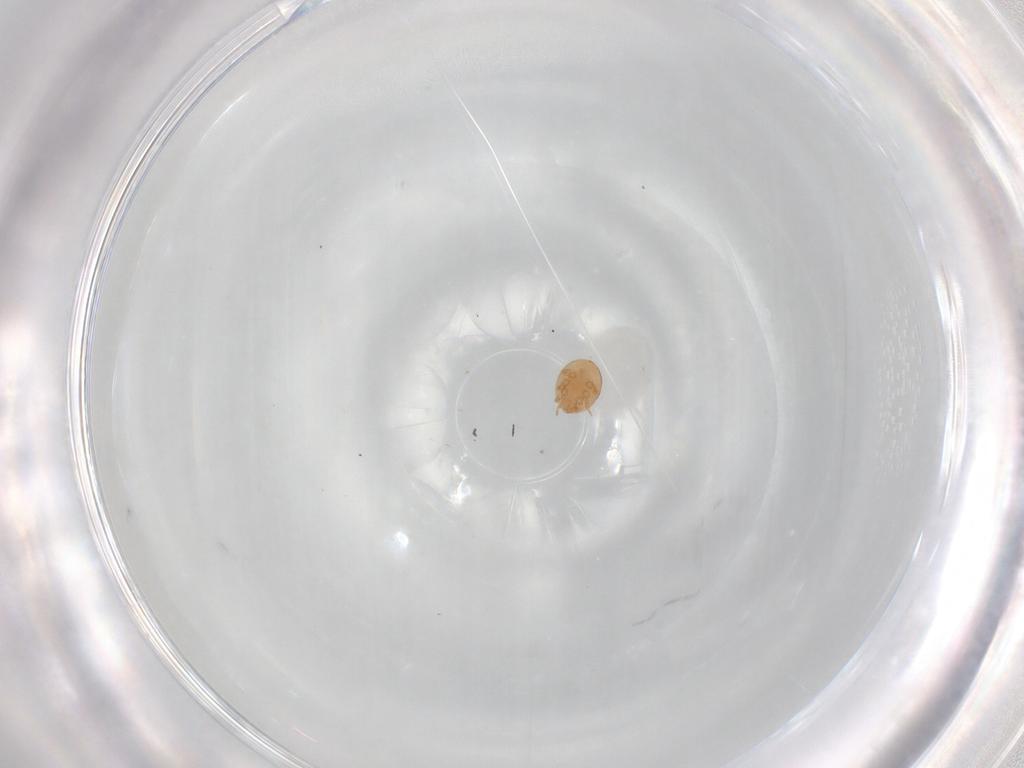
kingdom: Animalia
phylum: Arthropoda
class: Arachnida
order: Mesostigmata
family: Trematuridae
